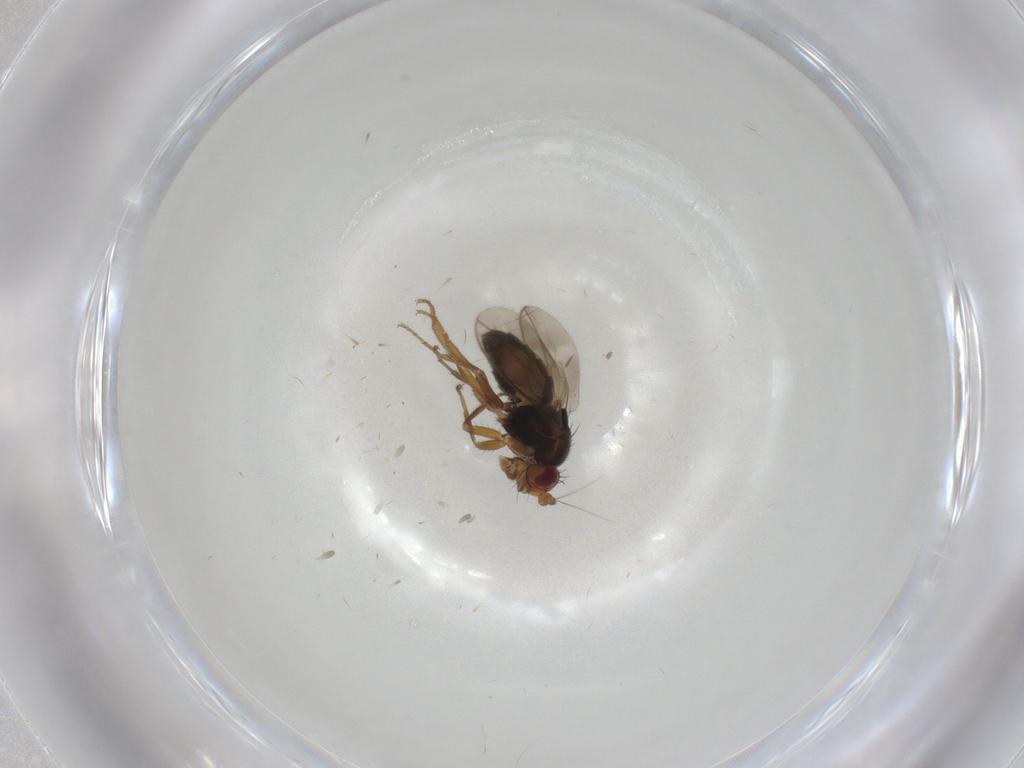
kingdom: Animalia
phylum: Arthropoda
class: Insecta
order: Diptera
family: Sphaeroceridae
